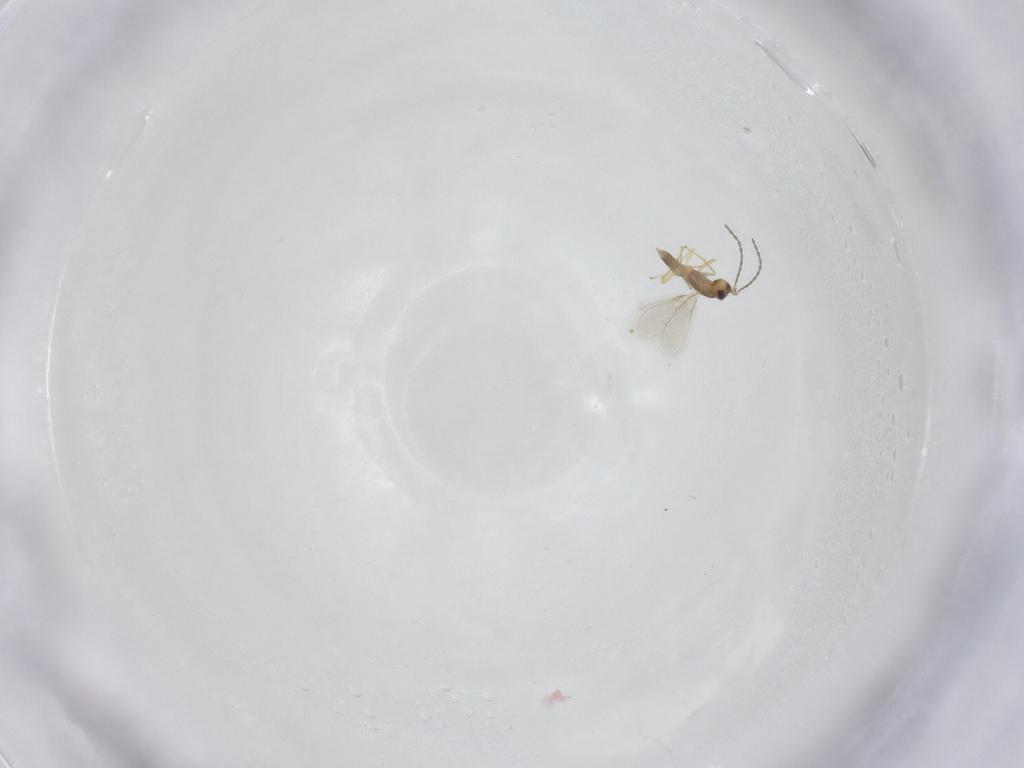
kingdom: Animalia
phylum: Arthropoda
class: Insecta
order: Hymenoptera
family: Mymaridae
